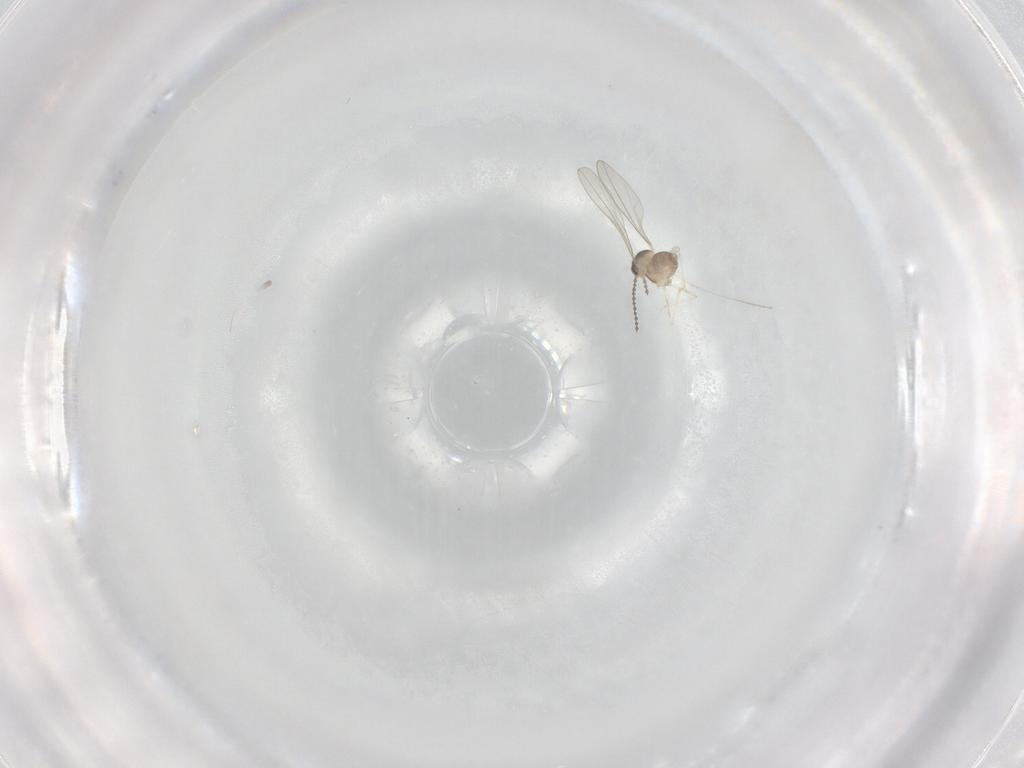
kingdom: Animalia
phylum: Arthropoda
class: Insecta
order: Diptera
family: Cecidomyiidae
